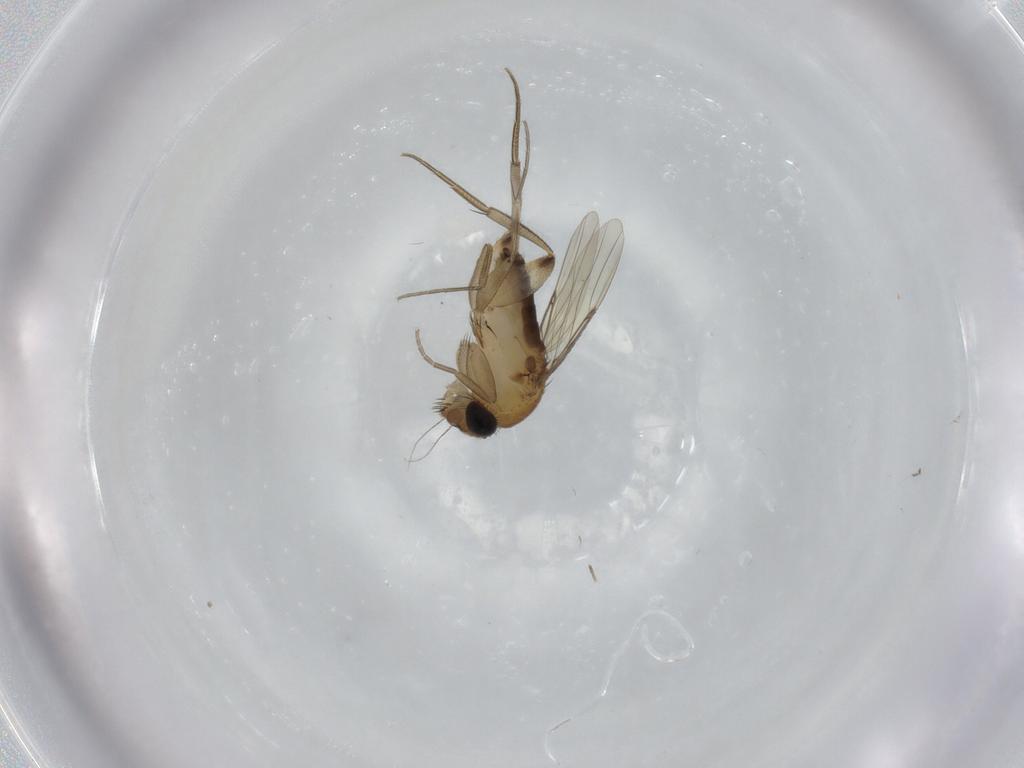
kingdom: Animalia
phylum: Arthropoda
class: Insecta
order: Diptera
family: Phoridae
